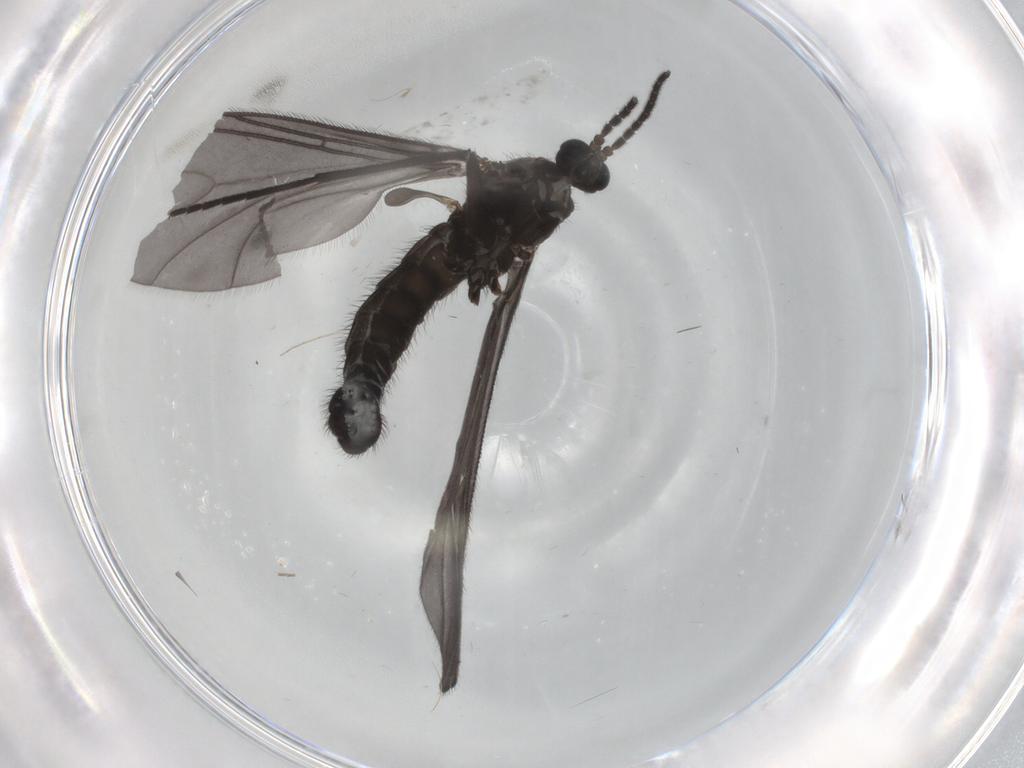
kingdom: Animalia
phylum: Arthropoda
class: Insecta
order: Diptera
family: Sciaridae
